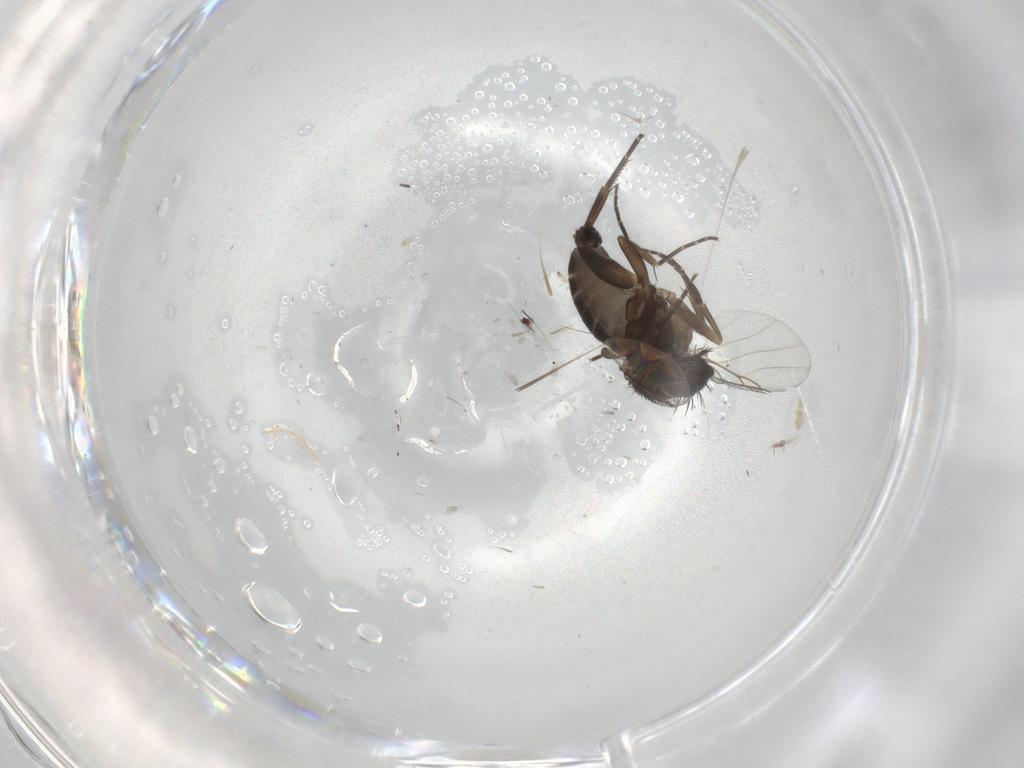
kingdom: Animalia
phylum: Arthropoda
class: Insecta
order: Diptera
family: Phoridae
